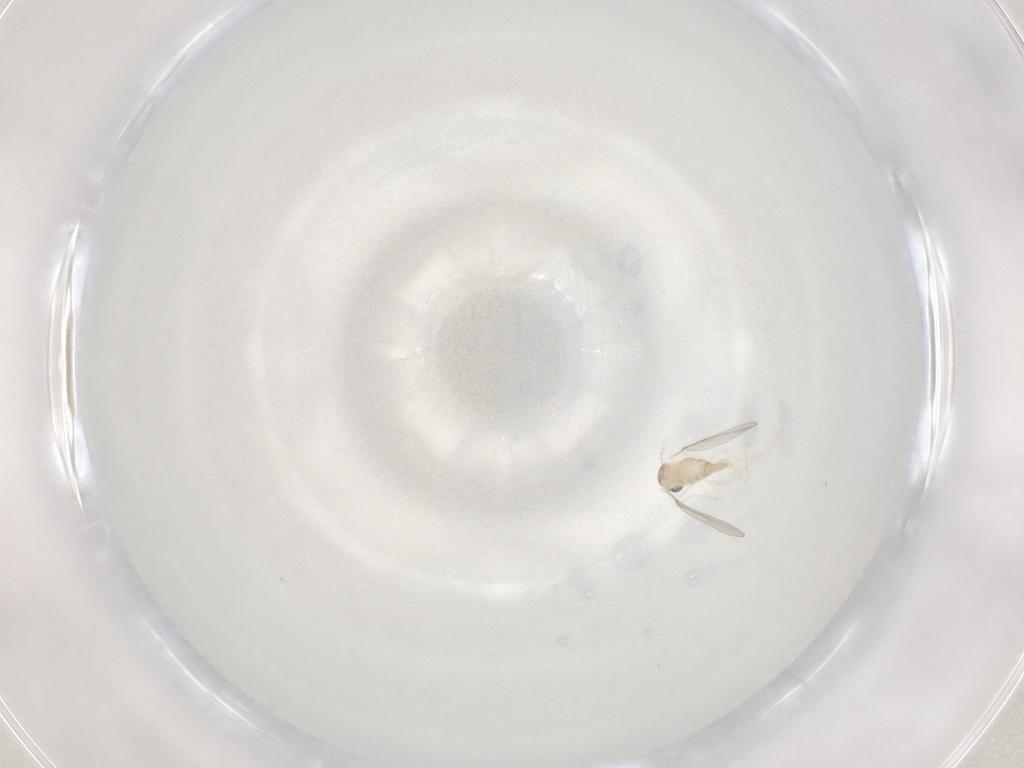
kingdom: Animalia
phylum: Arthropoda
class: Insecta
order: Diptera
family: Cecidomyiidae
